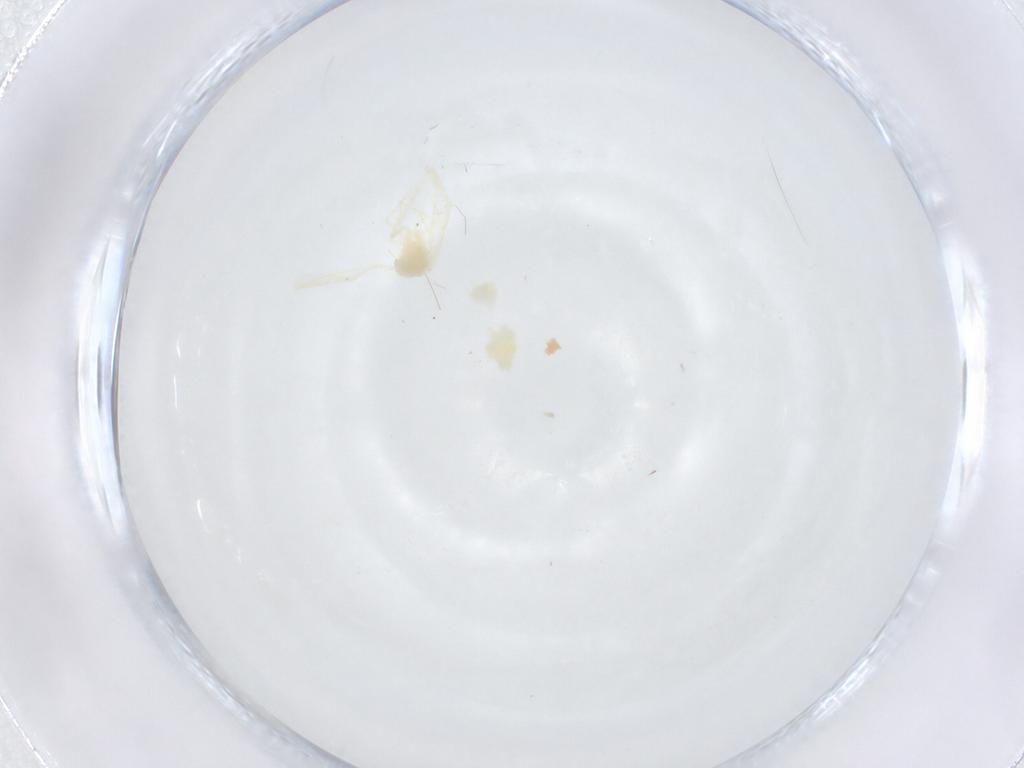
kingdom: Animalia
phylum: Arthropoda
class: Insecta
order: Hemiptera
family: Aleyrodidae
